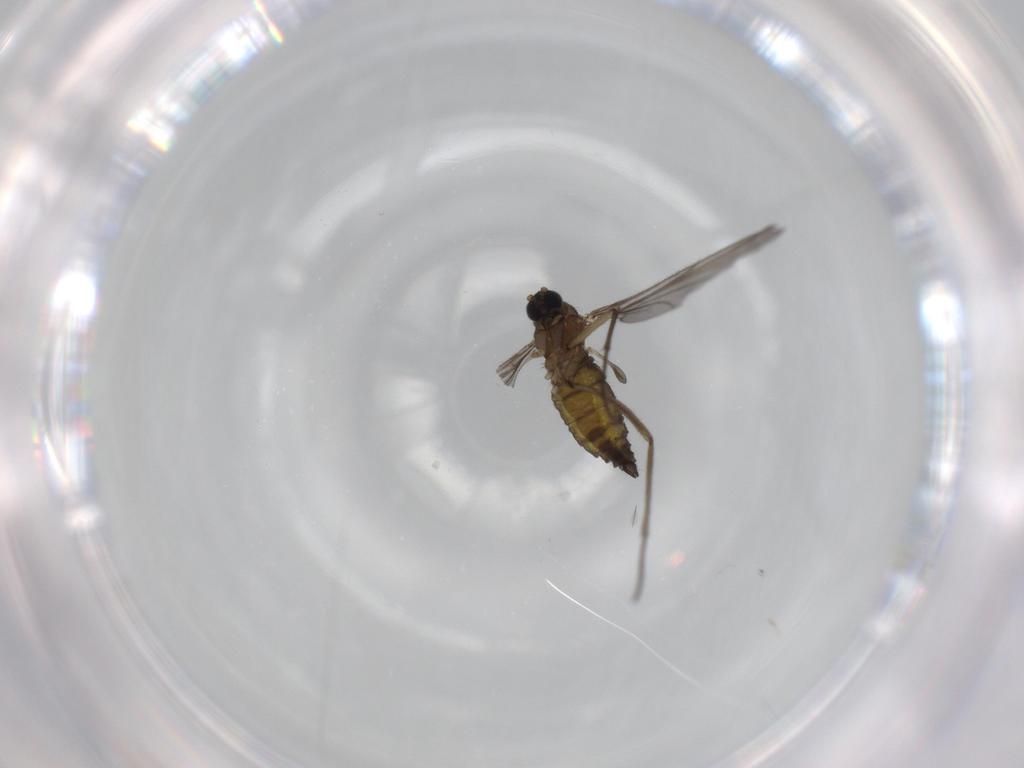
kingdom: Animalia
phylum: Arthropoda
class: Insecta
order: Diptera
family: Sciaridae
